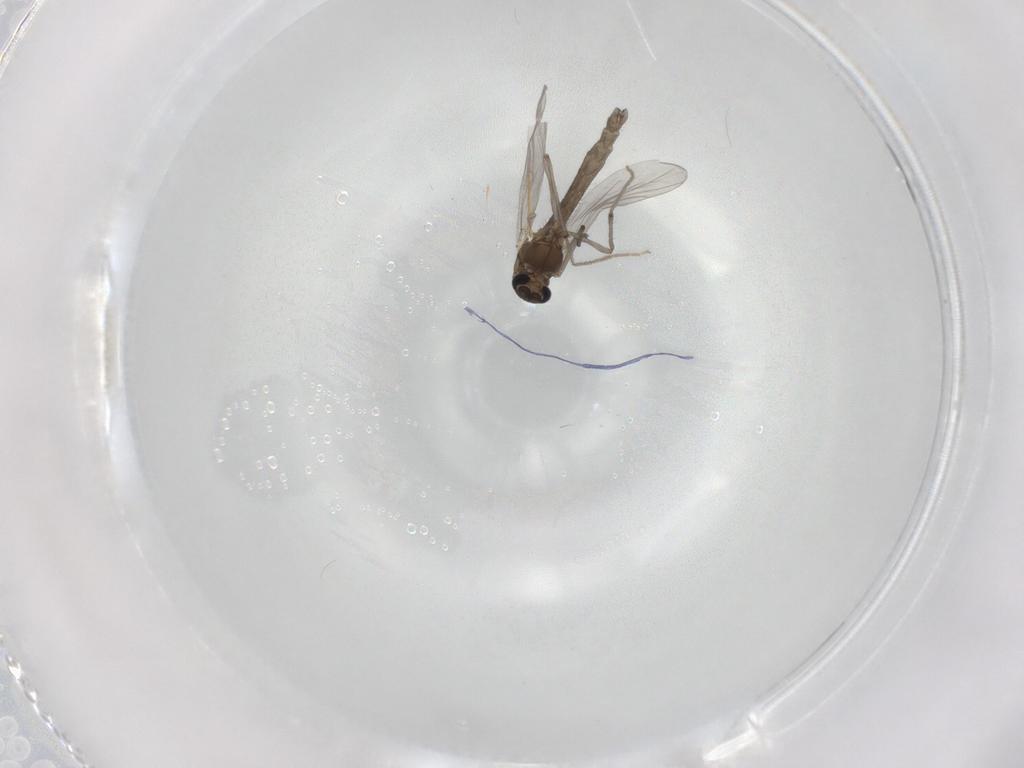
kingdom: Animalia
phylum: Arthropoda
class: Insecta
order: Diptera
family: Chironomidae
